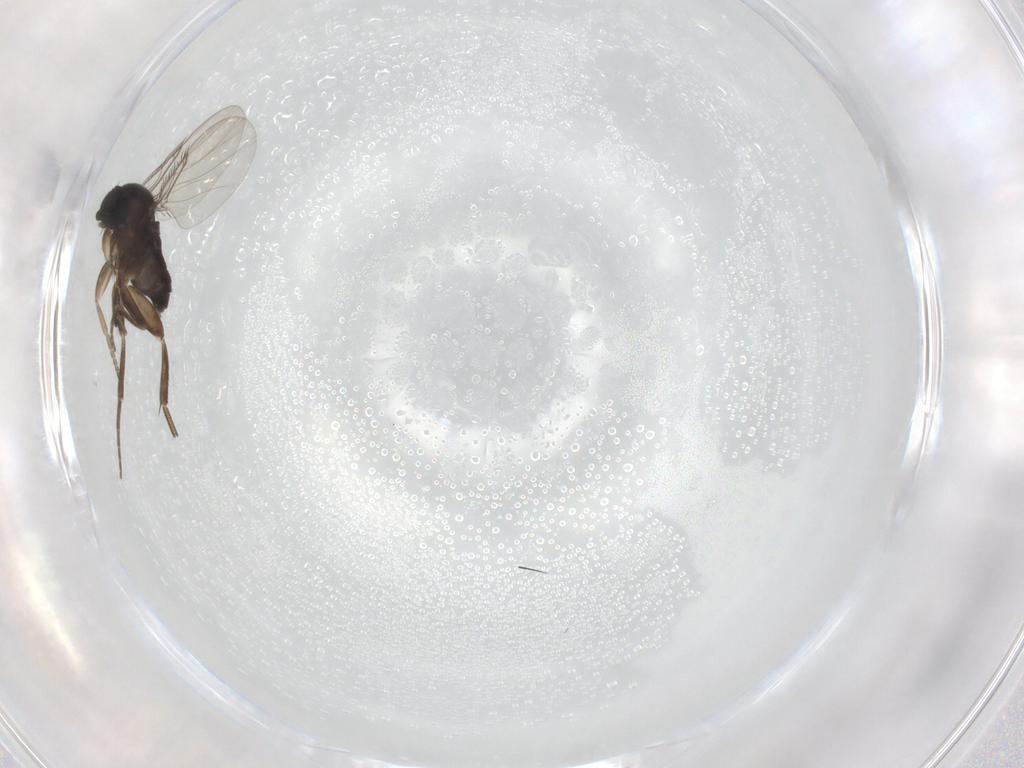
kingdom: Animalia
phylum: Arthropoda
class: Insecta
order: Diptera
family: Phoridae
